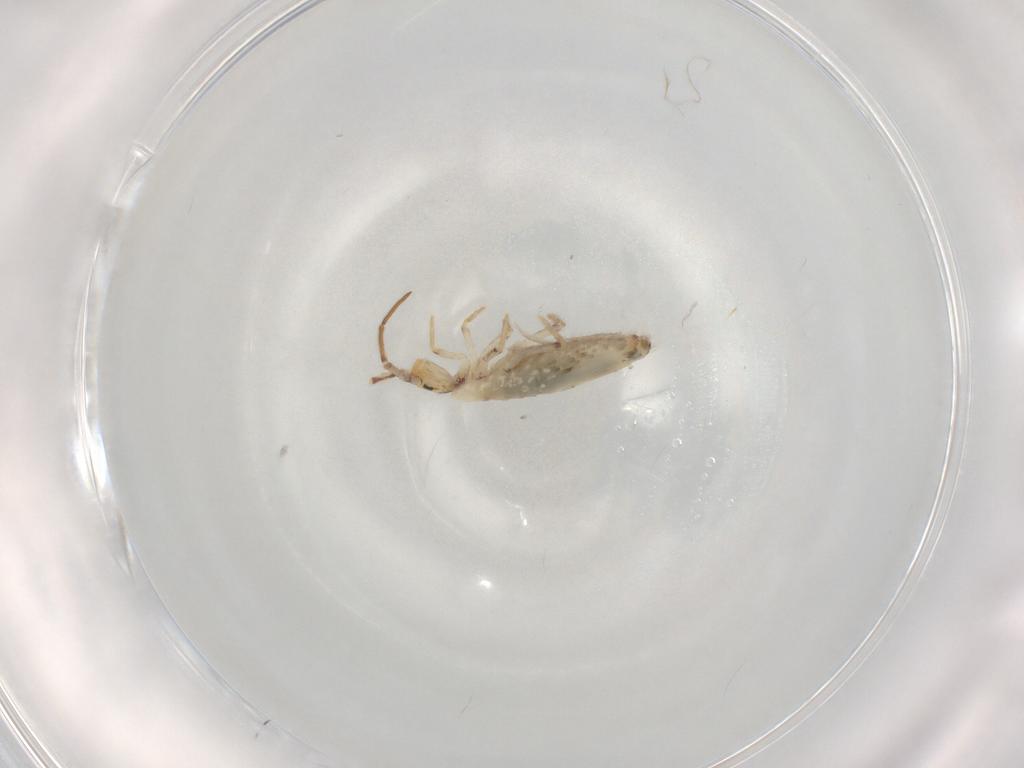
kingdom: Animalia
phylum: Arthropoda
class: Collembola
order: Entomobryomorpha
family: Entomobryidae
